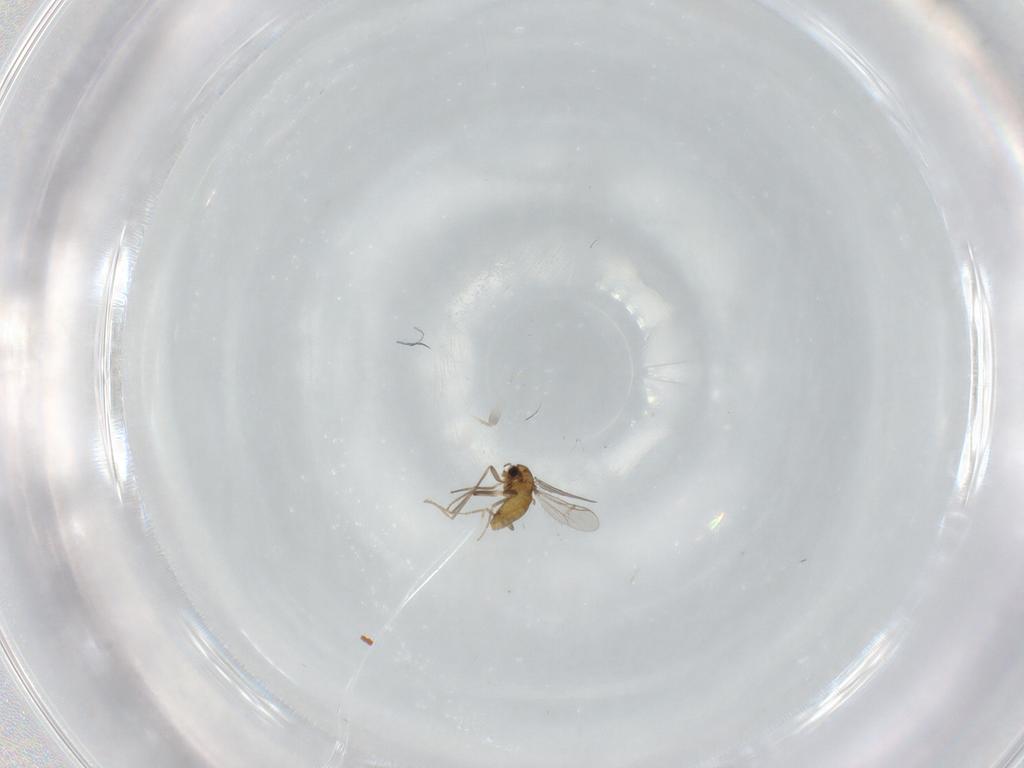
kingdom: Animalia
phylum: Arthropoda
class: Insecta
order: Diptera
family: Chironomidae
